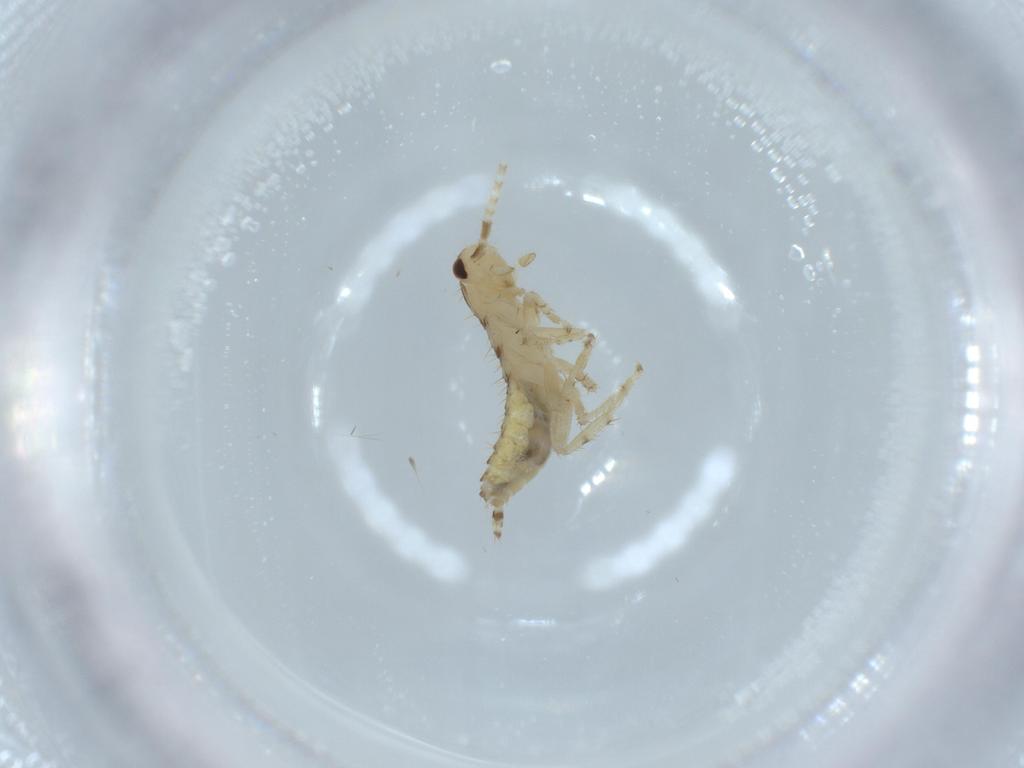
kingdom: Animalia
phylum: Arthropoda
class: Insecta
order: Blattodea
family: Ectobiidae
